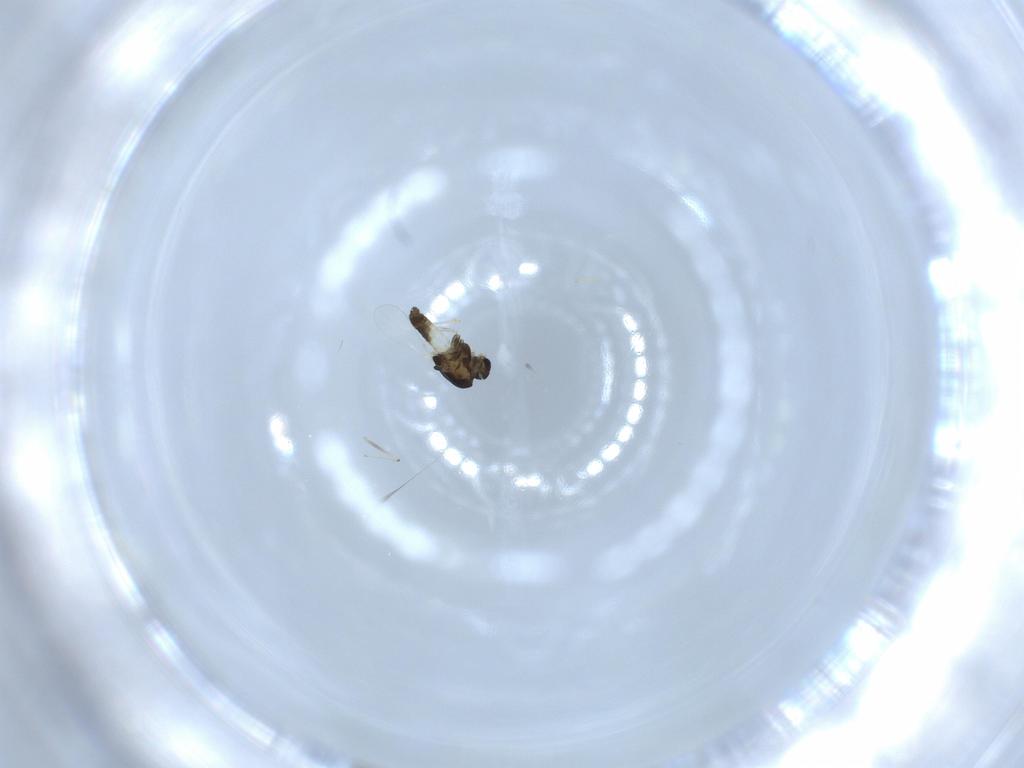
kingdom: Animalia
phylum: Arthropoda
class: Insecta
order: Diptera
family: Chironomidae
